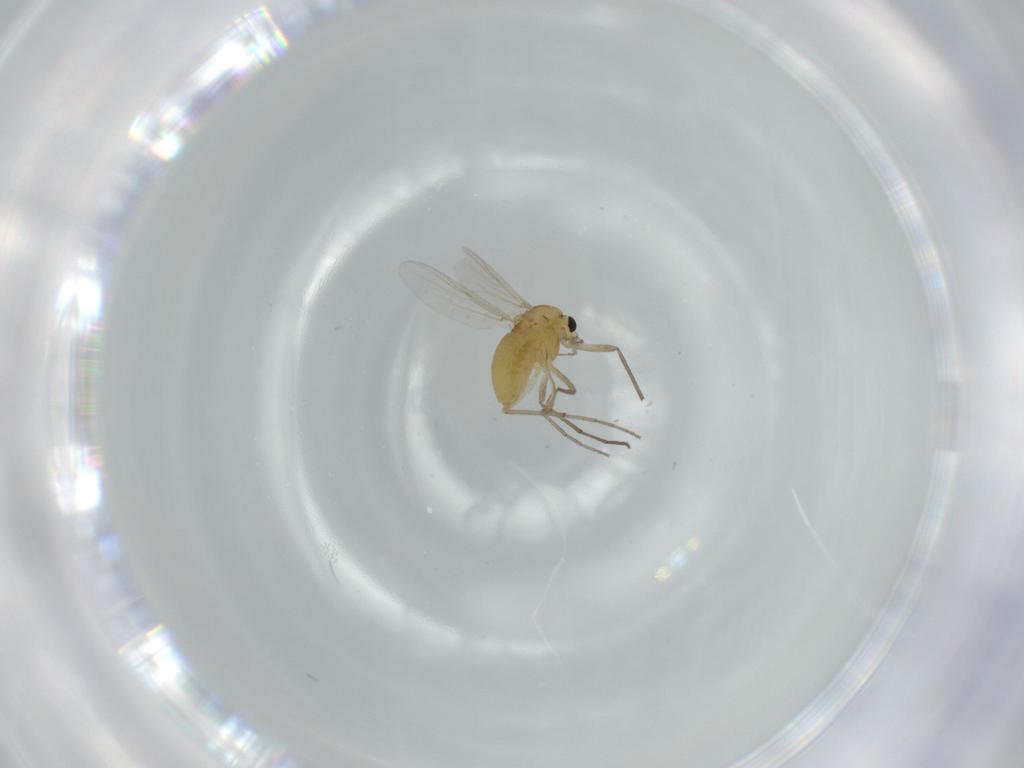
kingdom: Animalia
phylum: Arthropoda
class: Insecta
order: Diptera
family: Chironomidae
